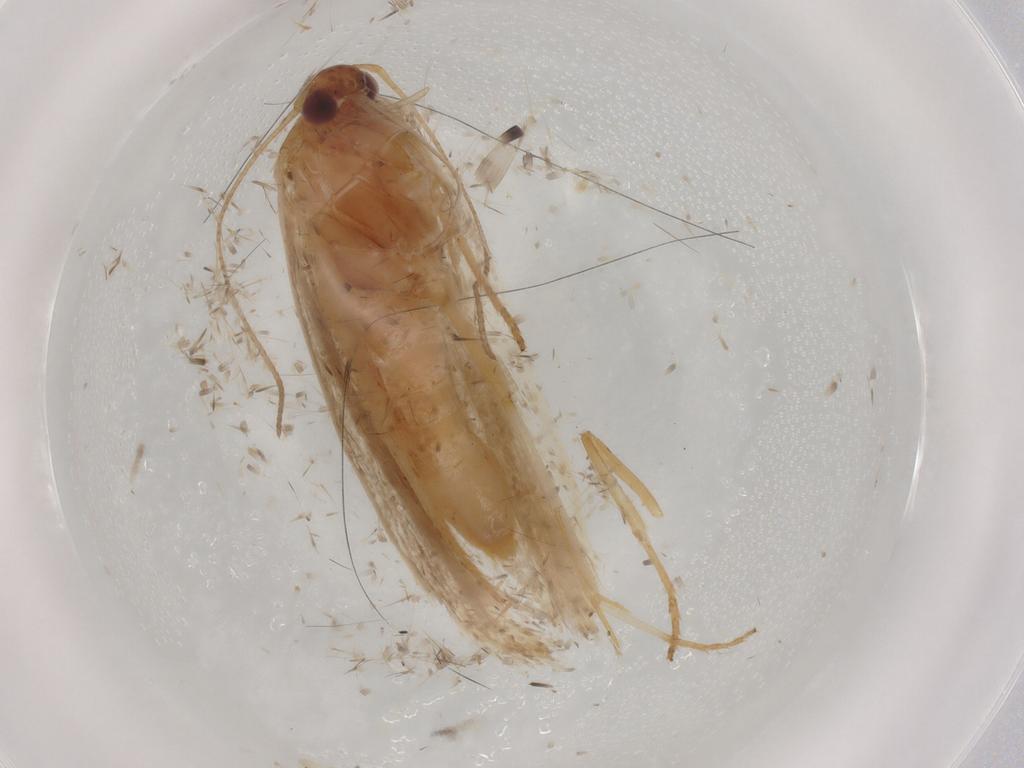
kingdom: Animalia
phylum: Arthropoda
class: Insecta
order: Lepidoptera
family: Gelechiidae
